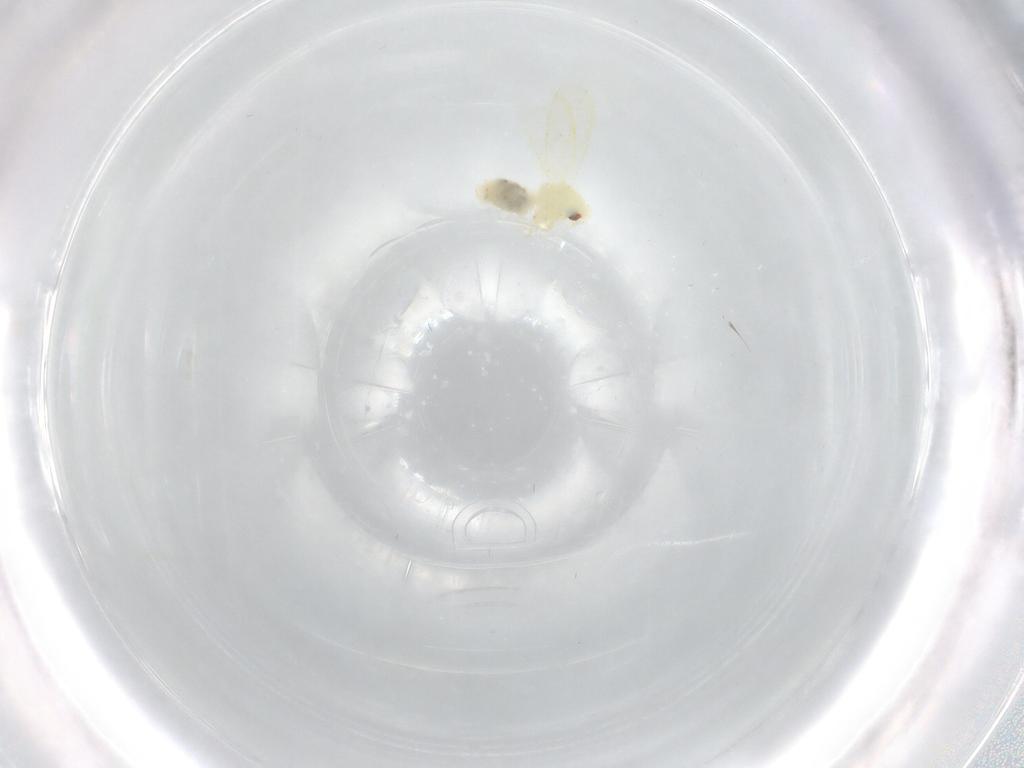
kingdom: Animalia
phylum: Arthropoda
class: Insecta
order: Hemiptera
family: Aleyrodidae
